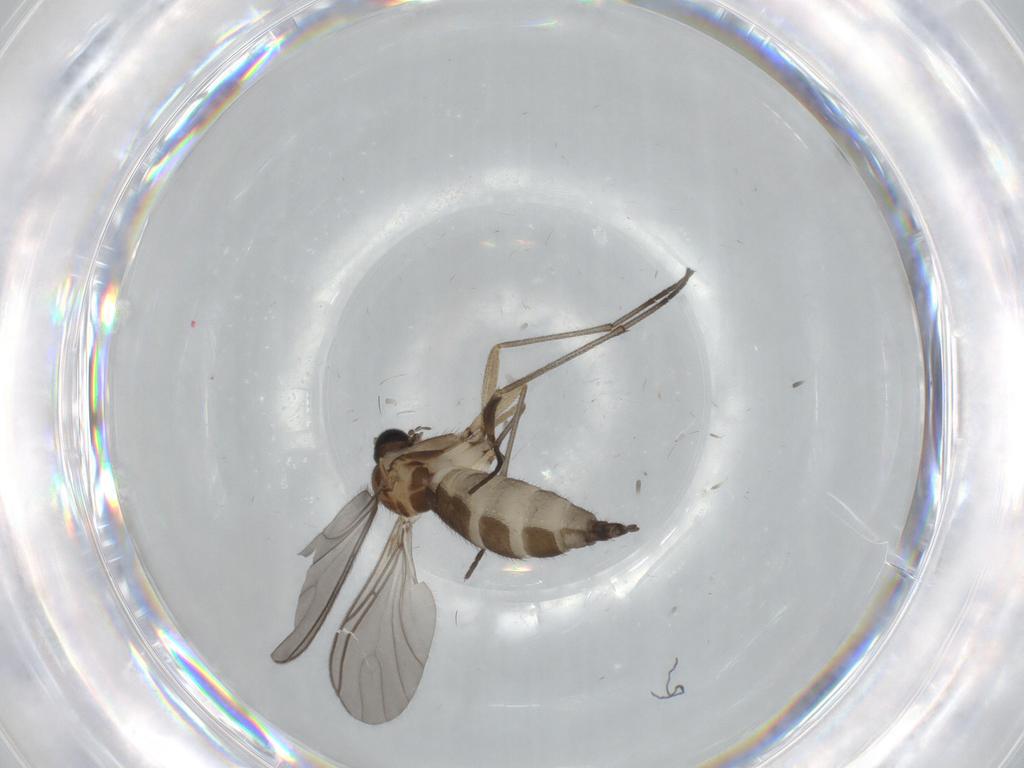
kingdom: Animalia
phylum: Arthropoda
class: Insecta
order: Diptera
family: Sciaridae
